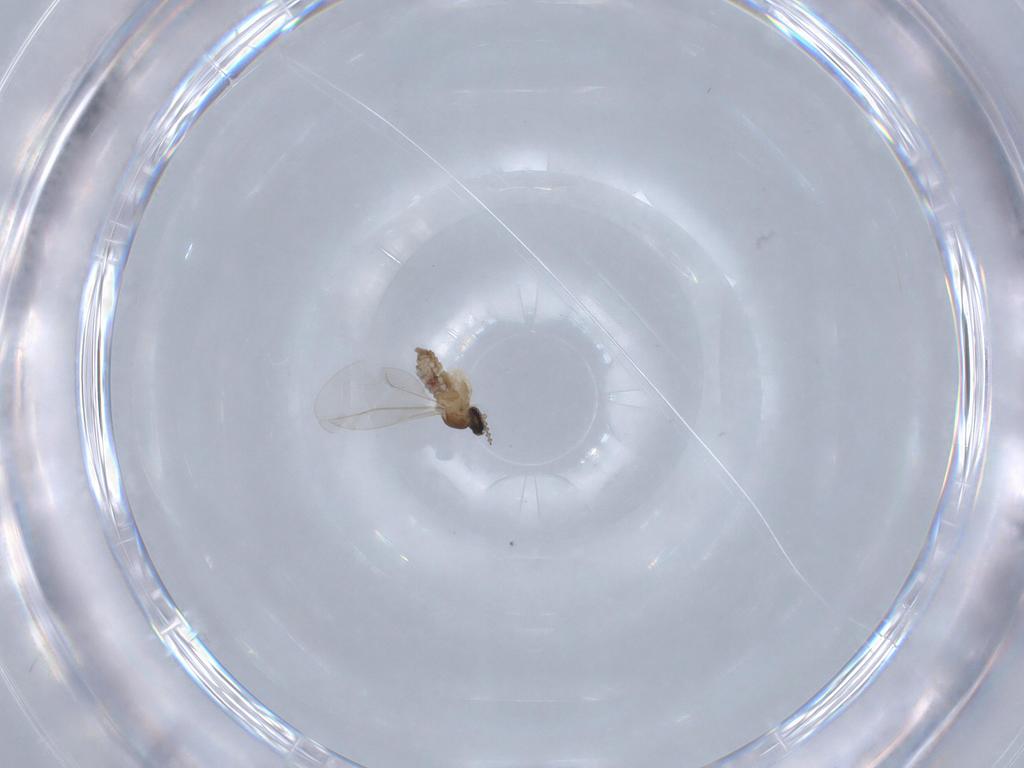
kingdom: Animalia
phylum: Arthropoda
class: Insecta
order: Diptera
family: Cecidomyiidae
